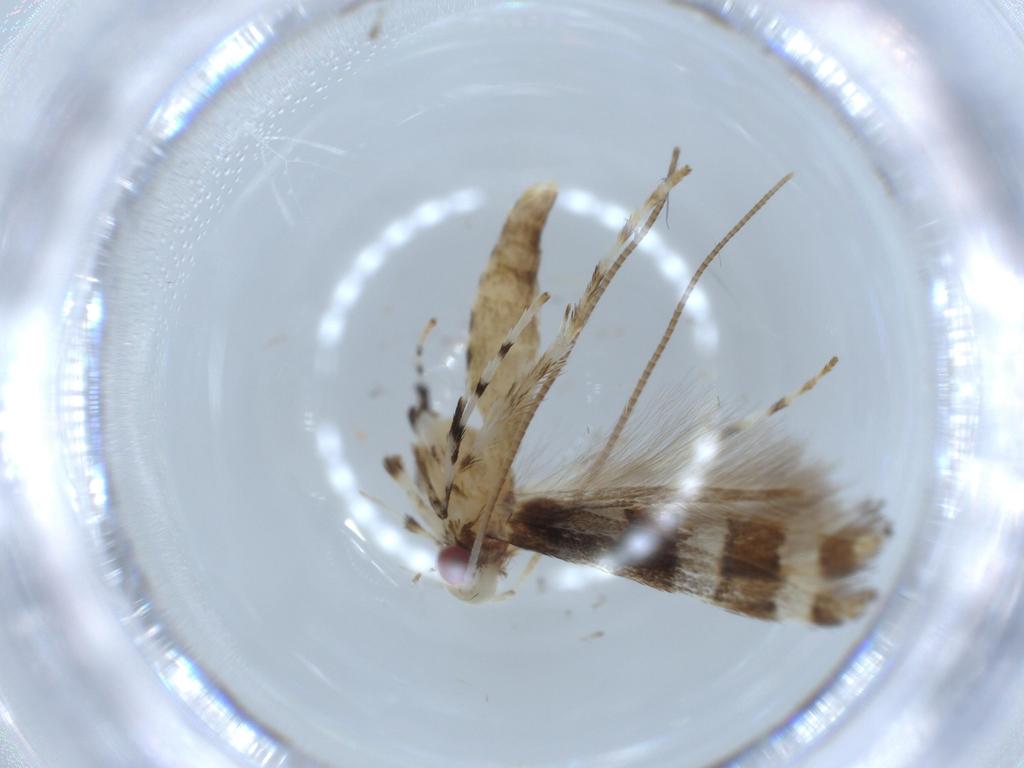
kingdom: Animalia
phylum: Arthropoda
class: Insecta
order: Lepidoptera
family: Gracillariidae
